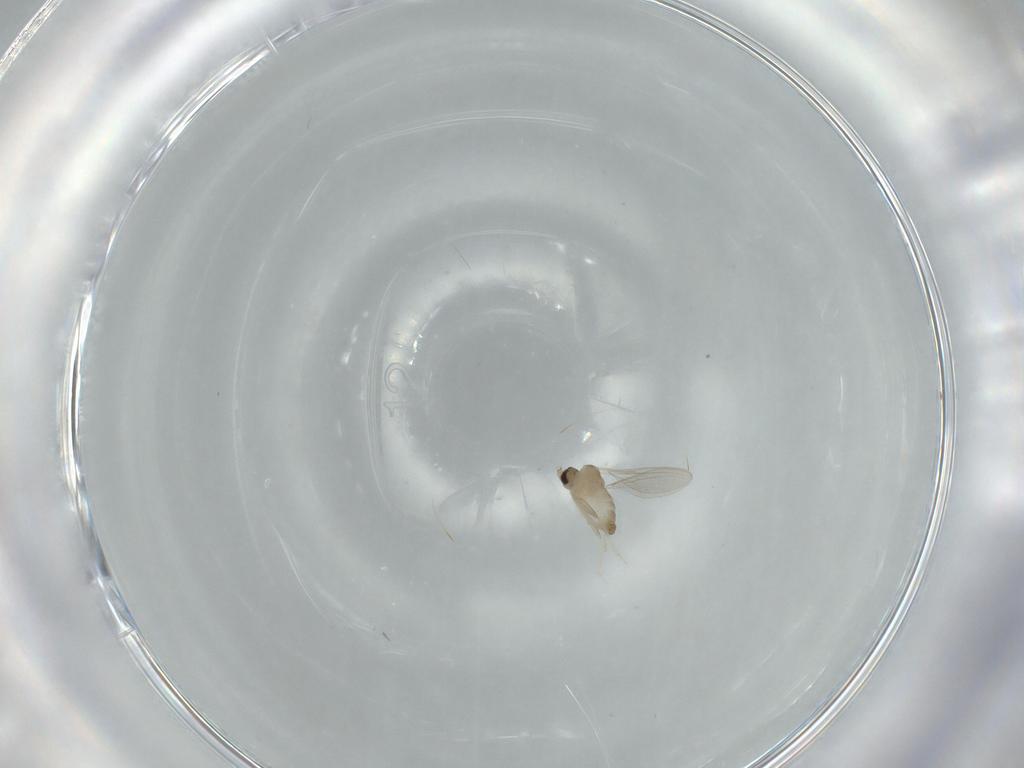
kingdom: Animalia
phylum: Arthropoda
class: Insecta
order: Diptera
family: Cecidomyiidae
